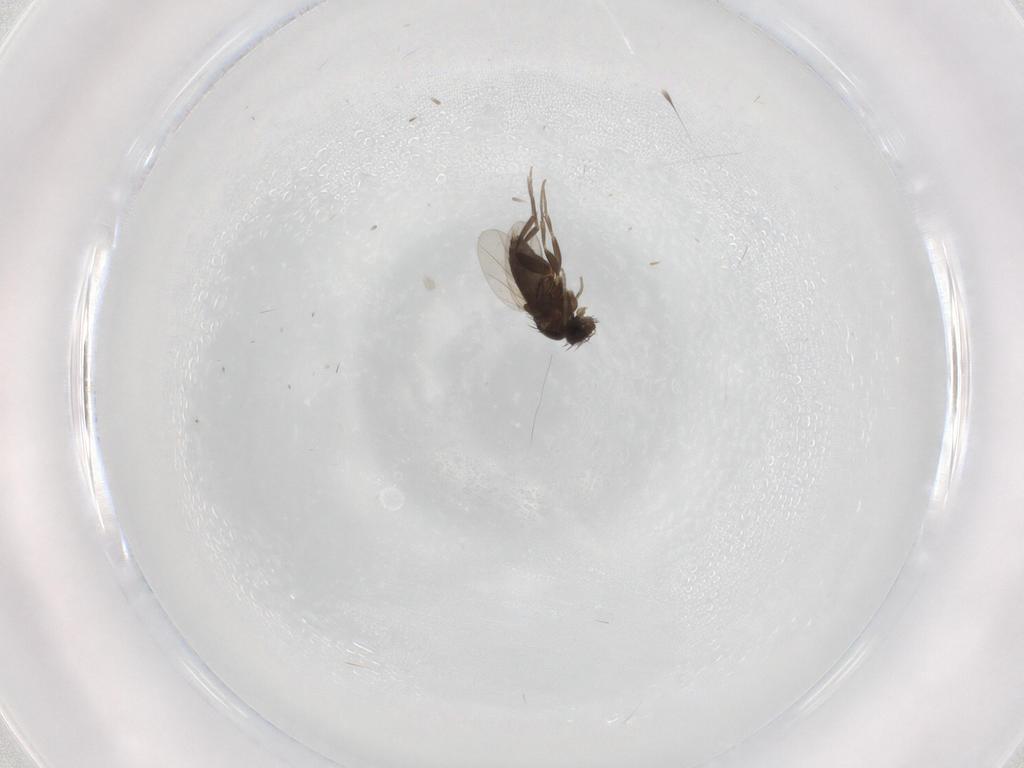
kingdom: Animalia
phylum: Arthropoda
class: Insecta
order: Diptera
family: Phoridae
